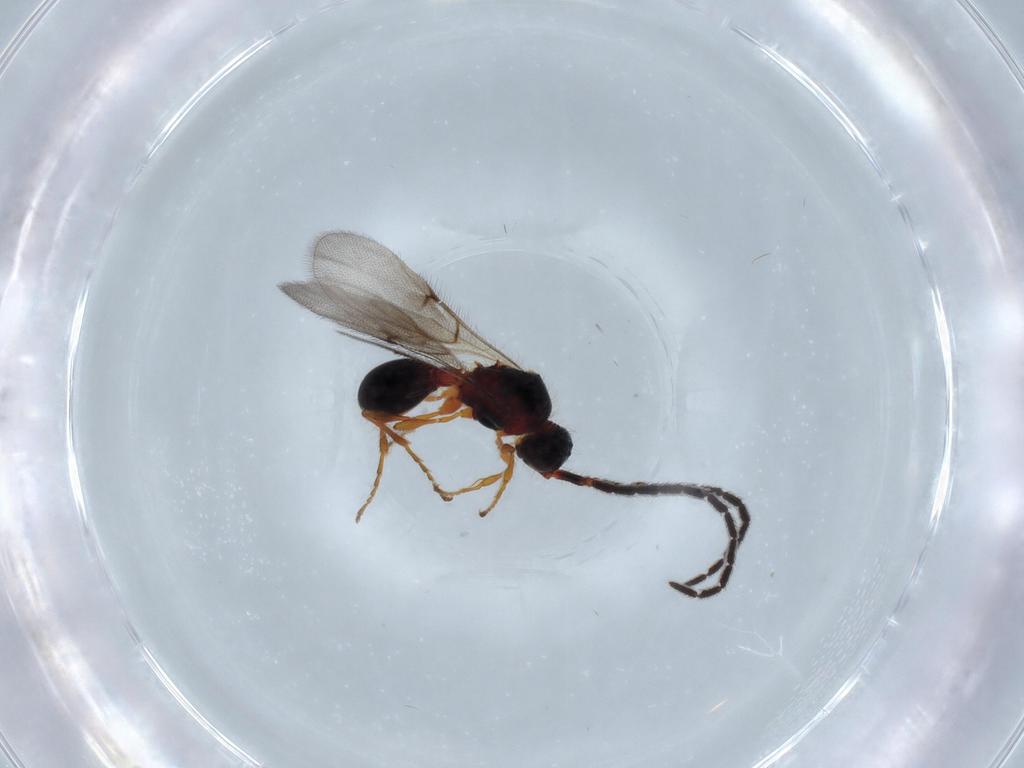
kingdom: Animalia
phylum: Arthropoda
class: Insecta
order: Hymenoptera
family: Diapriidae
